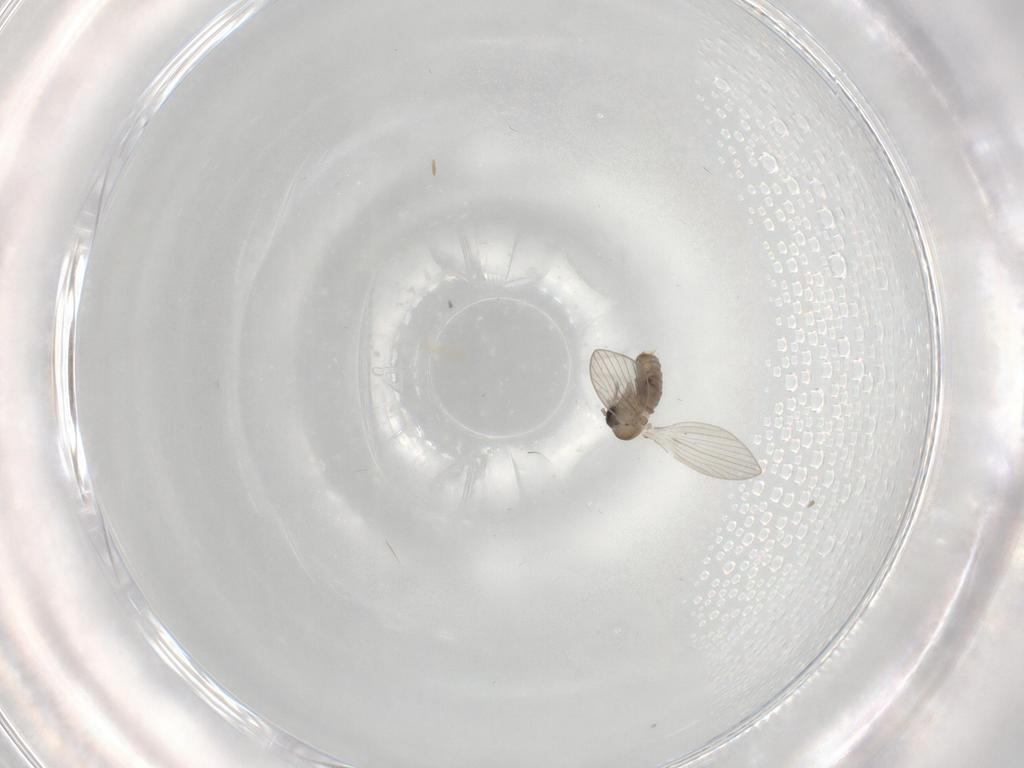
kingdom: Animalia
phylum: Arthropoda
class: Insecta
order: Diptera
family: Psychodidae
